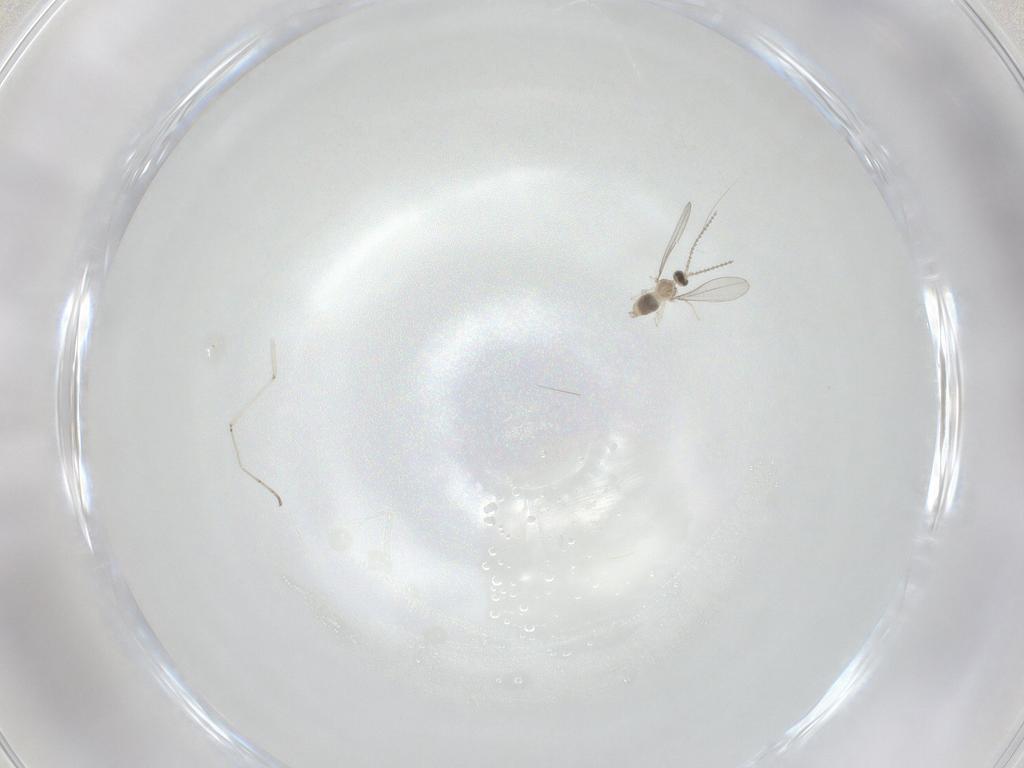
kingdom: Animalia
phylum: Arthropoda
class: Insecta
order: Diptera
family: Cecidomyiidae
